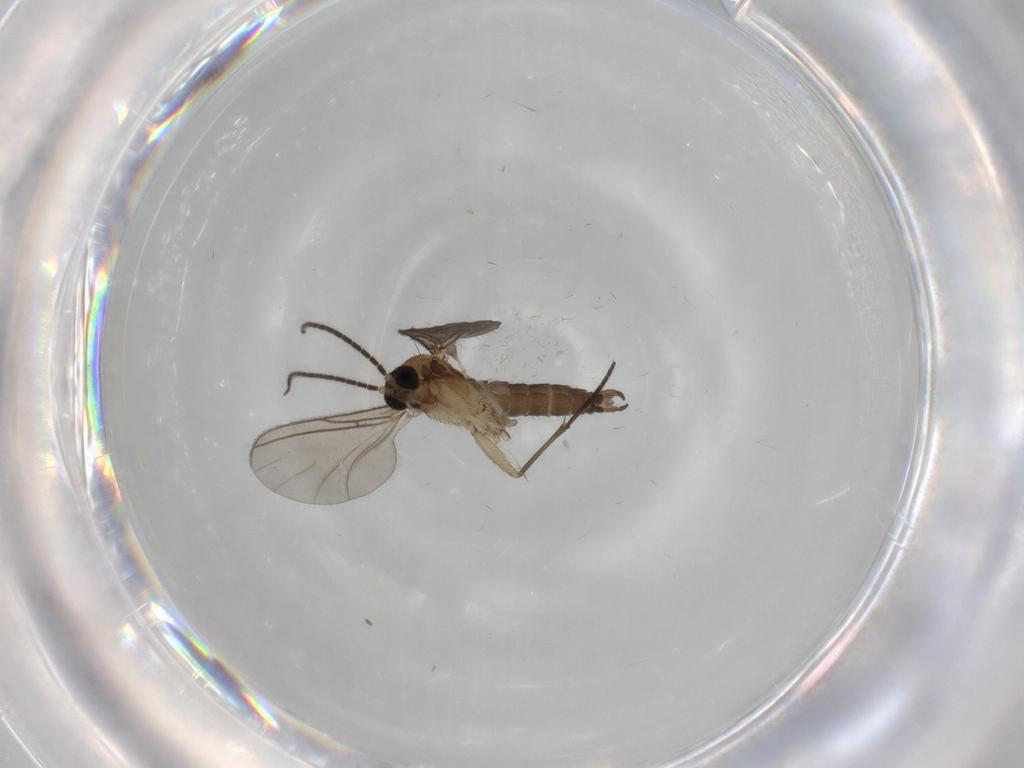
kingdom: Animalia
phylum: Arthropoda
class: Insecta
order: Diptera
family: Sciaridae
